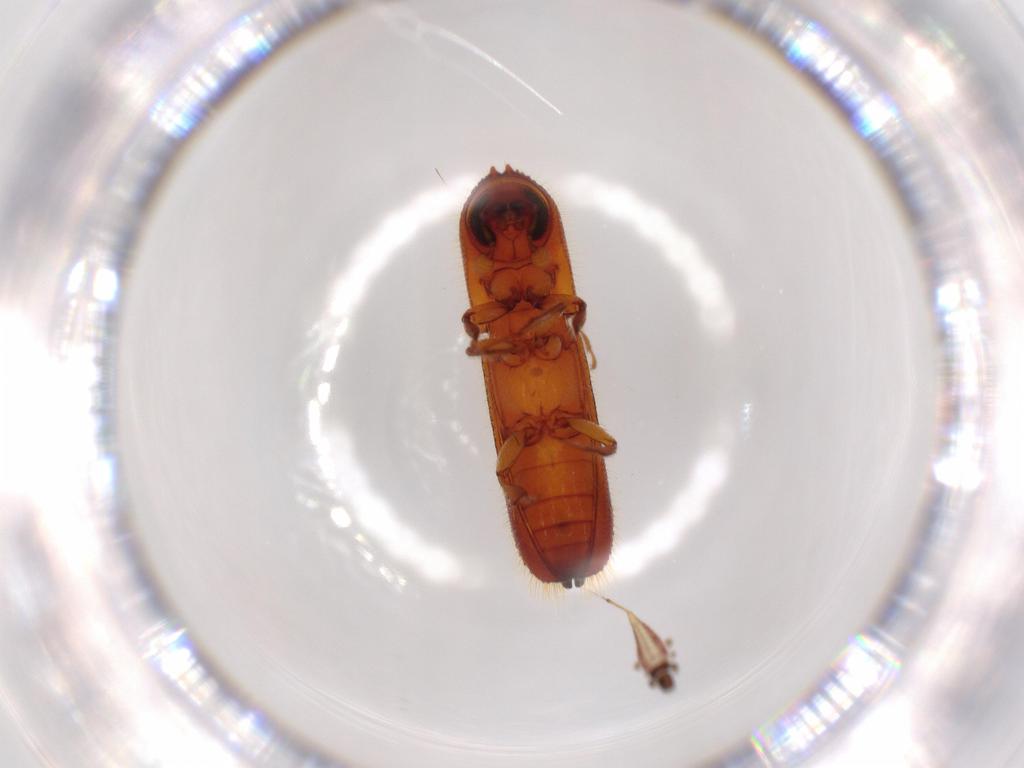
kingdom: Animalia
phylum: Arthropoda
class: Insecta
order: Coleoptera
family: Curculionidae
